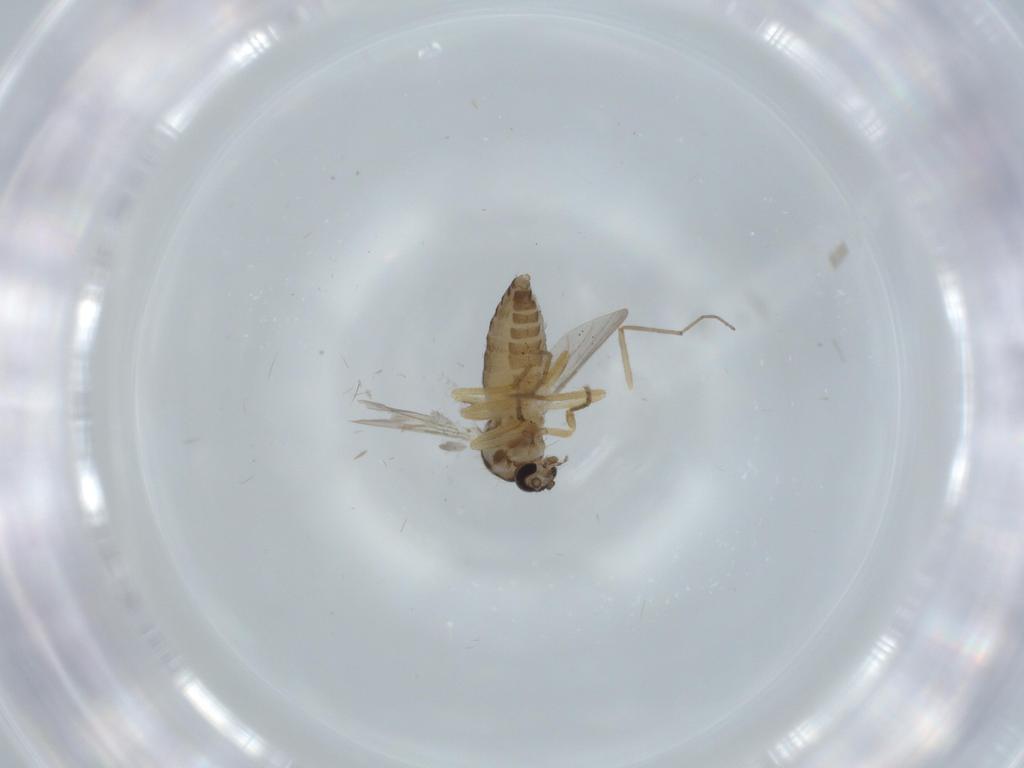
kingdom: Animalia
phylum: Arthropoda
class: Insecta
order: Diptera
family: Ceratopogonidae
